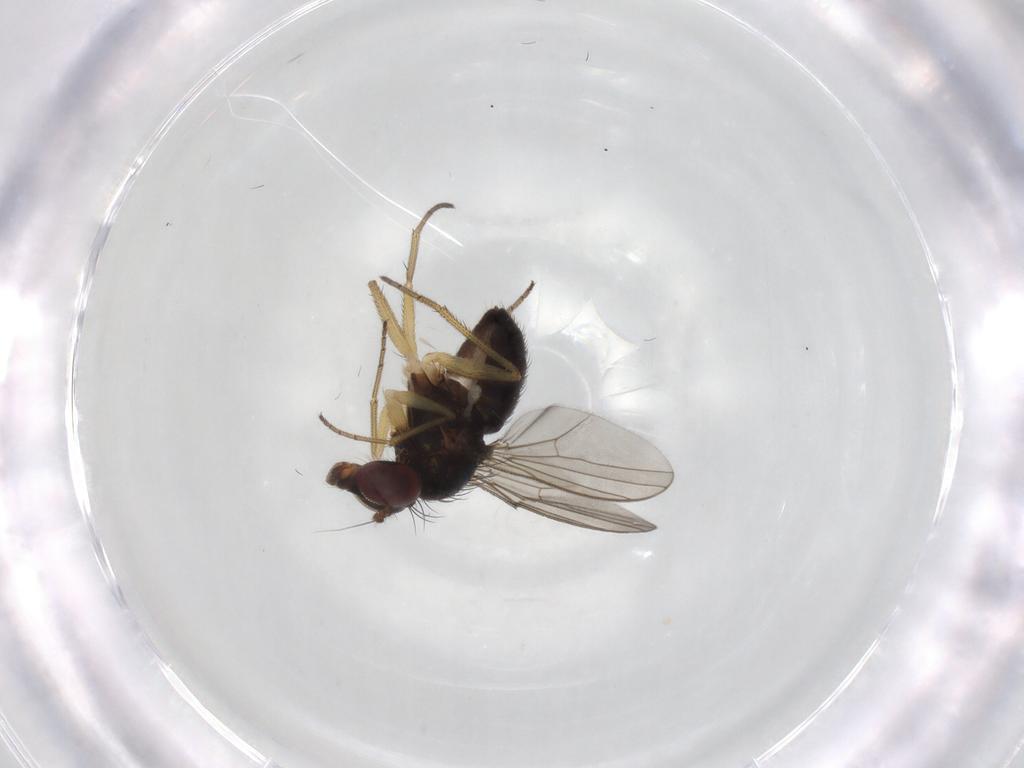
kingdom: Animalia
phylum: Arthropoda
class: Insecta
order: Diptera
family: Dolichopodidae
